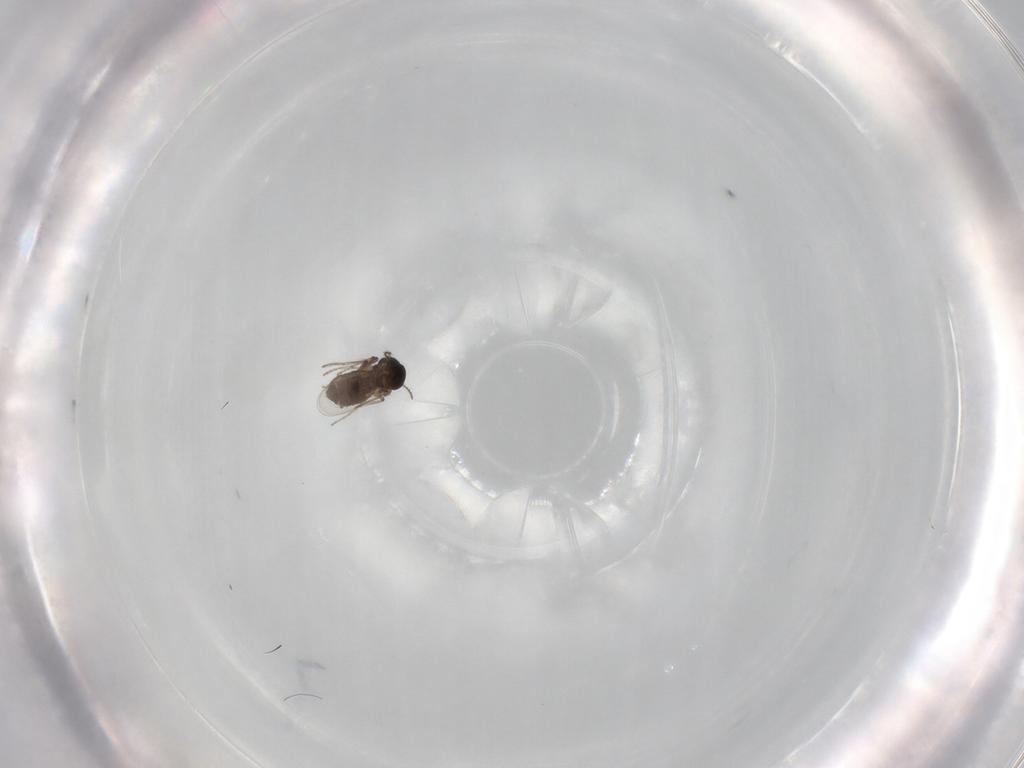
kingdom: Animalia
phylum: Arthropoda
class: Insecta
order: Diptera
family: Ceratopogonidae
